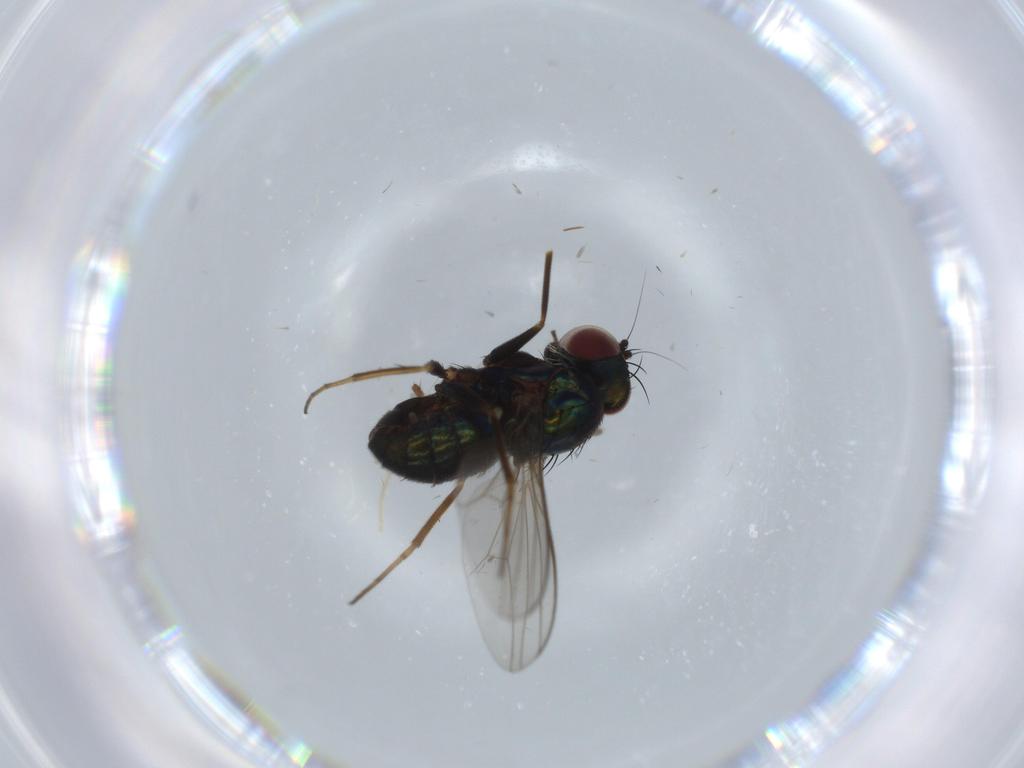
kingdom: Animalia
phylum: Arthropoda
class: Insecta
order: Diptera
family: Dolichopodidae
